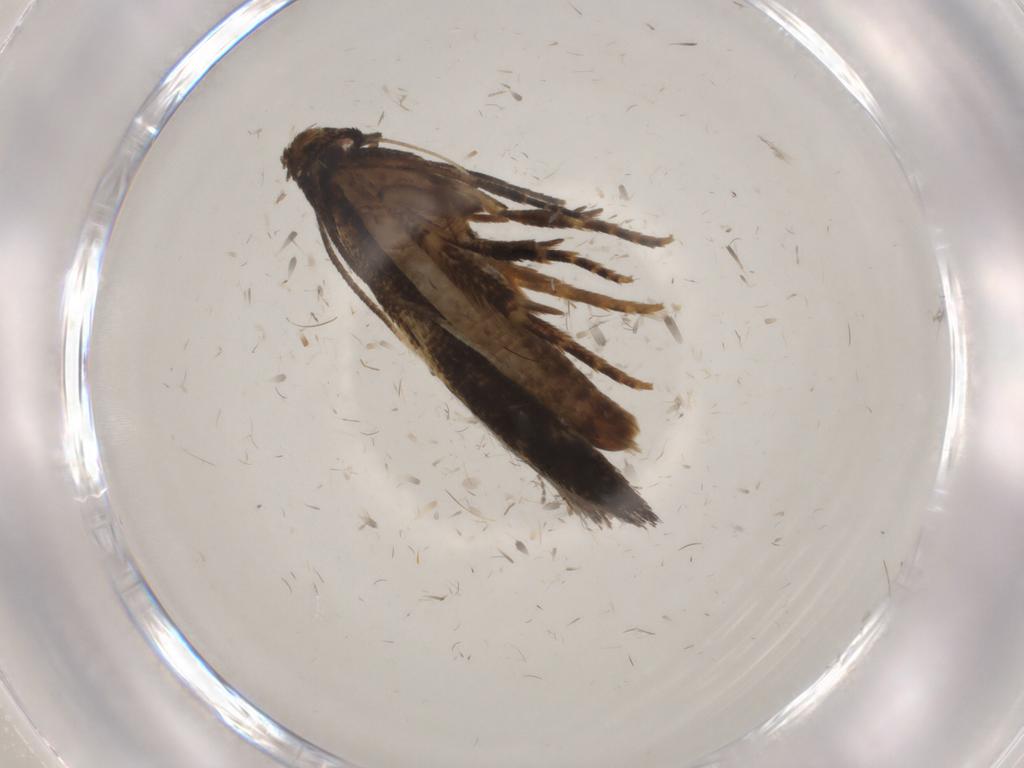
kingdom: Animalia
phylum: Arthropoda
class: Insecta
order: Lepidoptera
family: Cosmopterigidae
